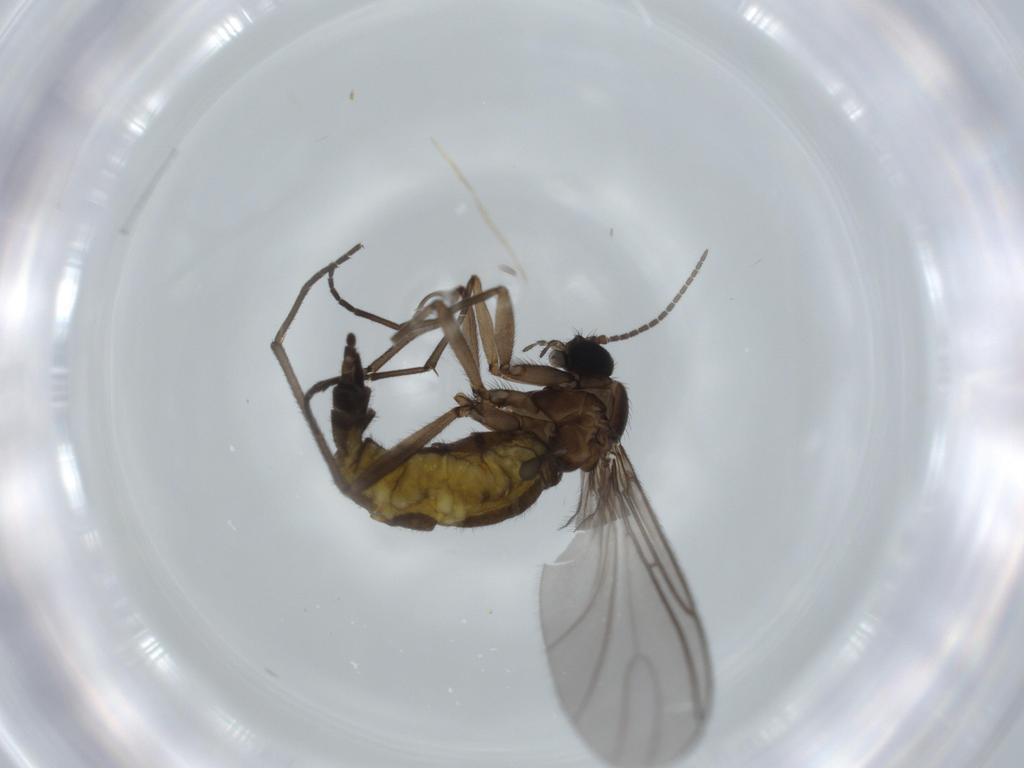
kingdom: Animalia
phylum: Arthropoda
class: Insecta
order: Diptera
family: Sciaridae
